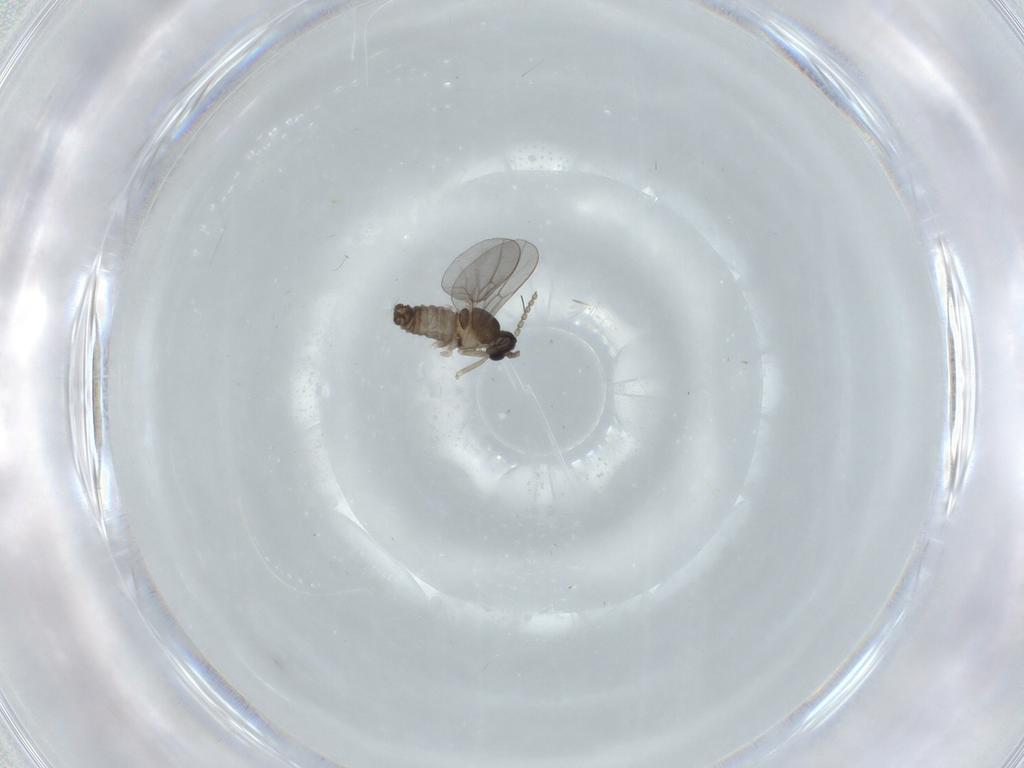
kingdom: Animalia
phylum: Arthropoda
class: Insecta
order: Diptera
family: Cecidomyiidae
